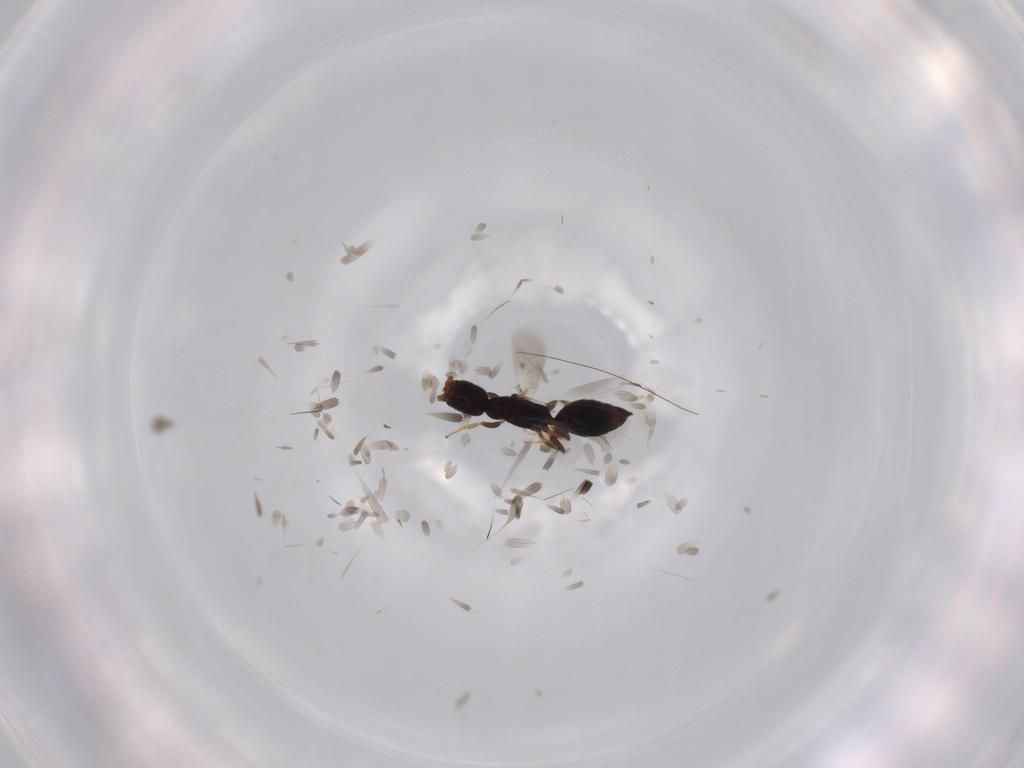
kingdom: Animalia
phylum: Arthropoda
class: Insecta
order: Hymenoptera
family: Bethylidae
